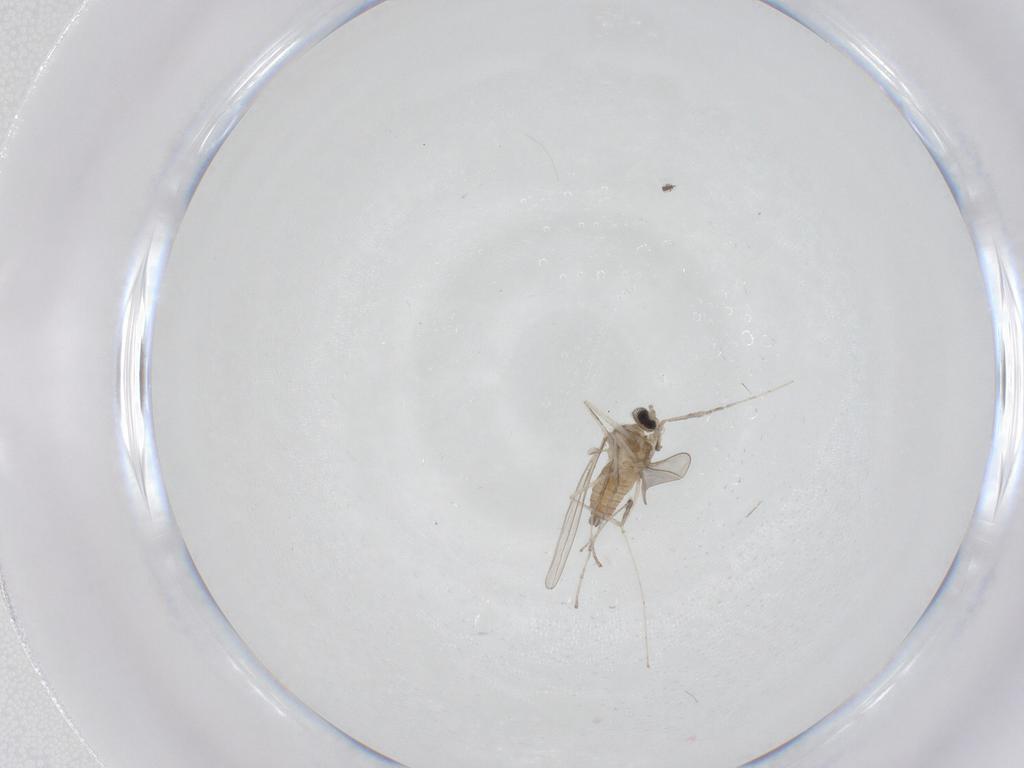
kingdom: Animalia
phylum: Arthropoda
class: Insecta
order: Diptera
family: Cecidomyiidae
